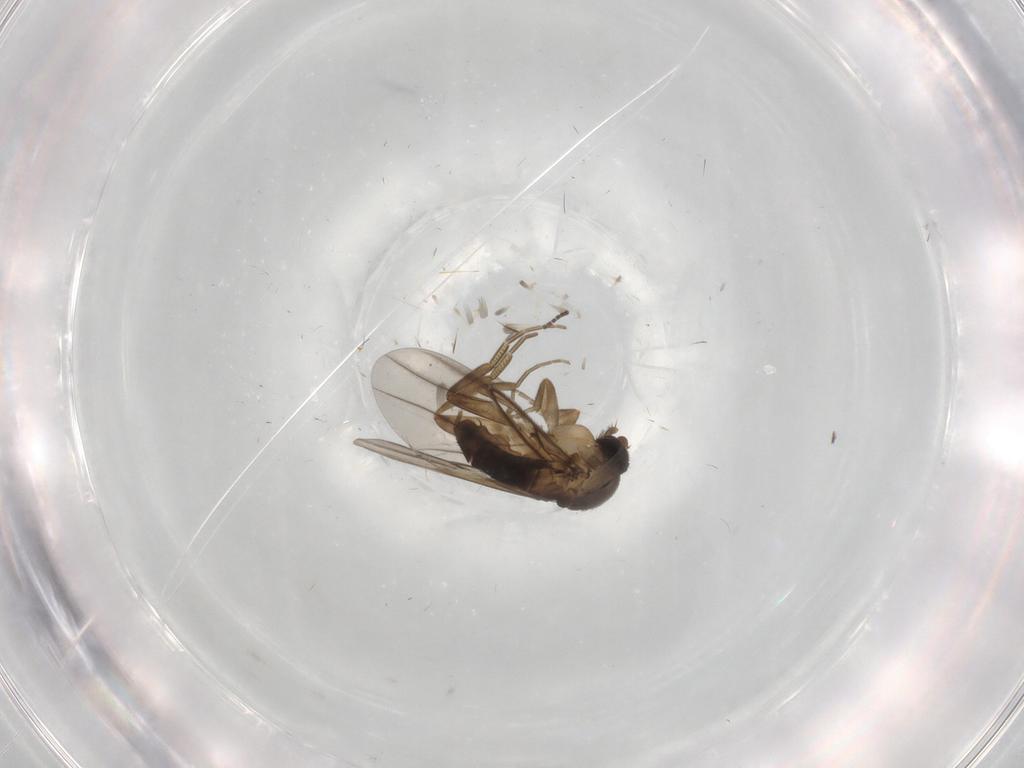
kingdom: Animalia
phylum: Arthropoda
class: Insecta
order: Diptera
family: Phoridae
